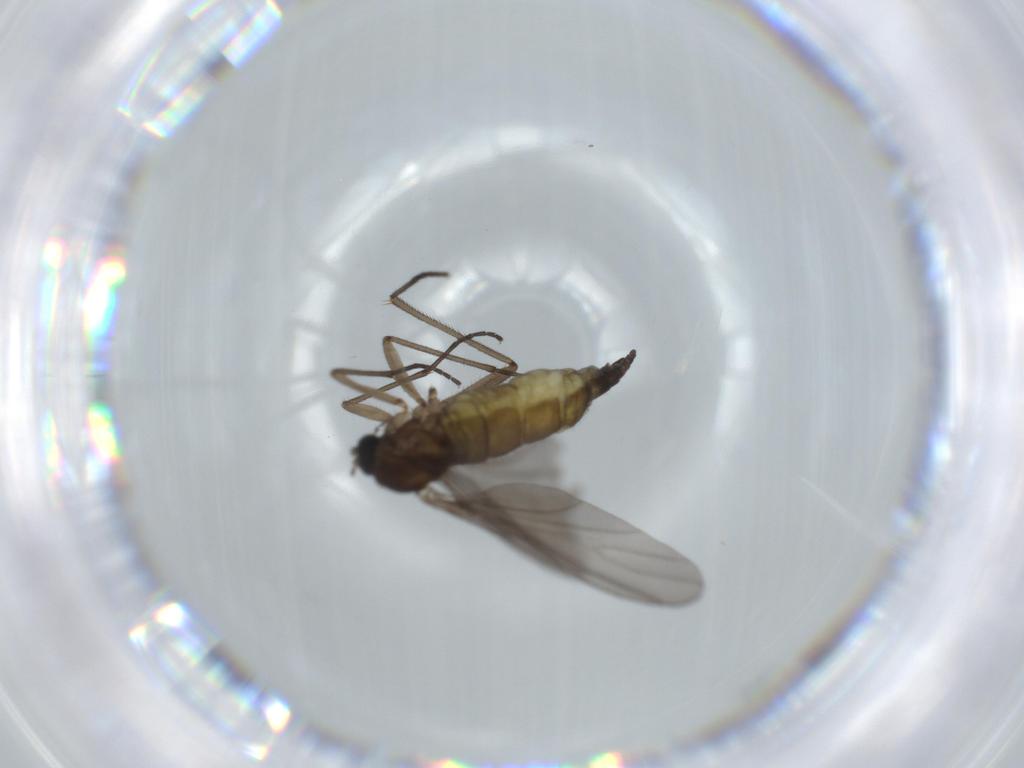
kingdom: Animalia
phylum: Arthropoda
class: Insecta
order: Diptera
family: Sciaridae
